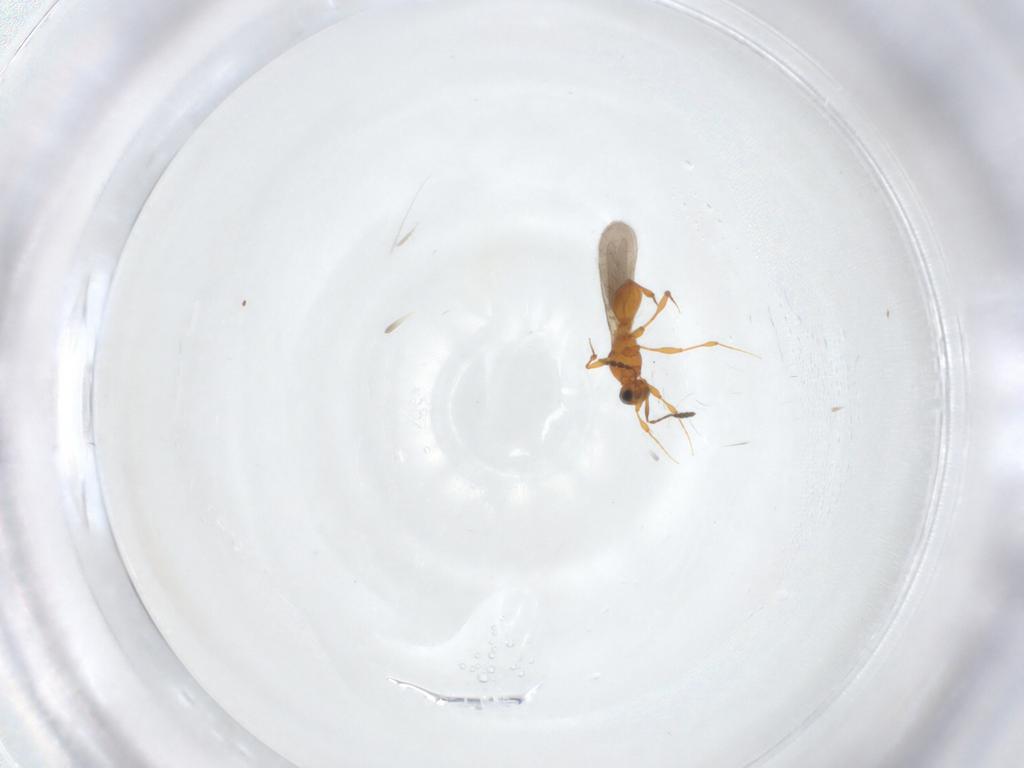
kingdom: Animalia
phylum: Arthropoda
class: Insecta
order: Hymenoptera
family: Platygastridae
